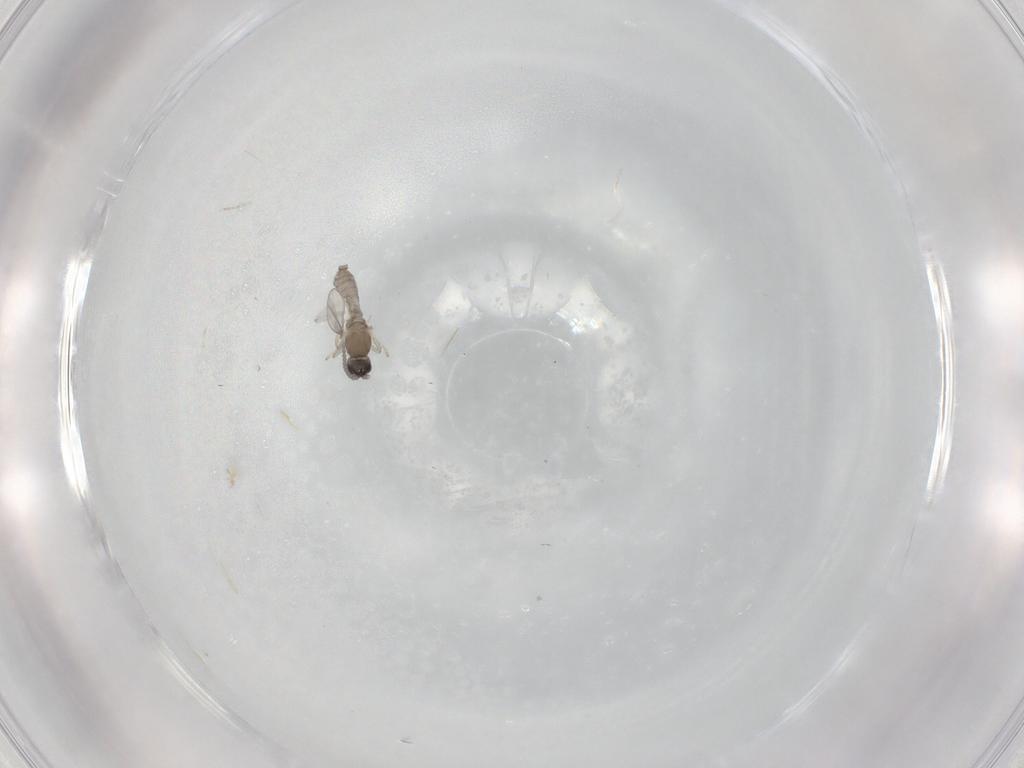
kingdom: Animalia
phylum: Arthropoda
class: Insecta
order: Diptera
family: Cecidomyiidae
